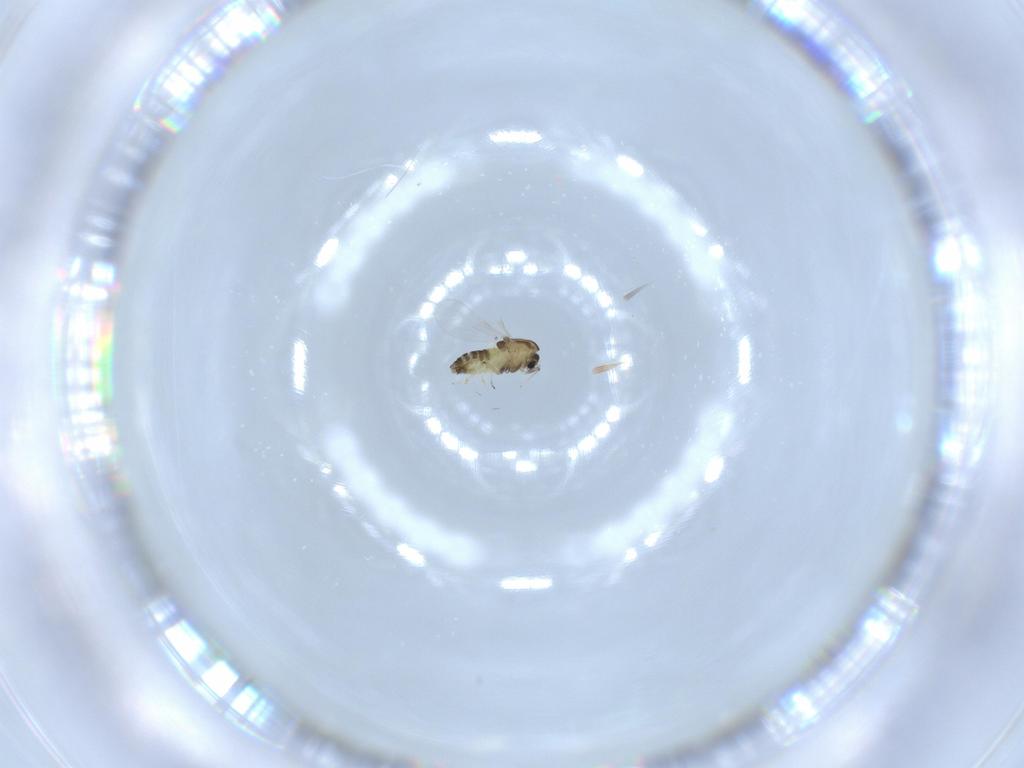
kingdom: Animalia
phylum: Arthropoda
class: Insecta
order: Diptera
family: Chironomidae
